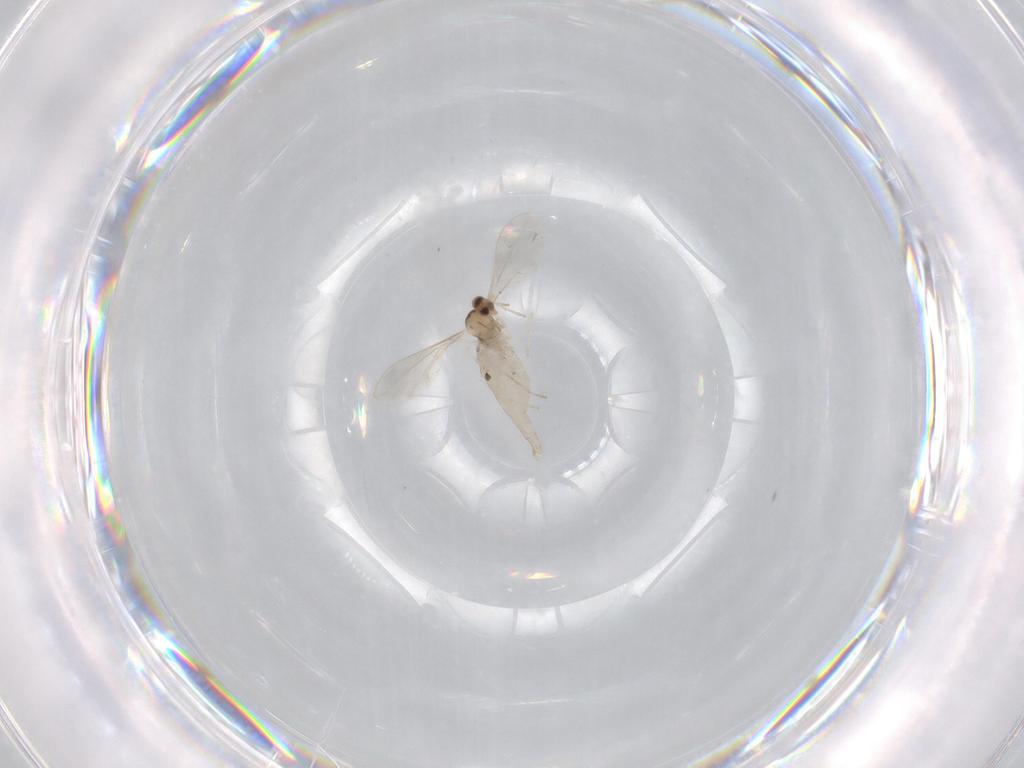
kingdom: Animalia
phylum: Arthropoda
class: Insecta
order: Diptera
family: Cecidomyiidae
